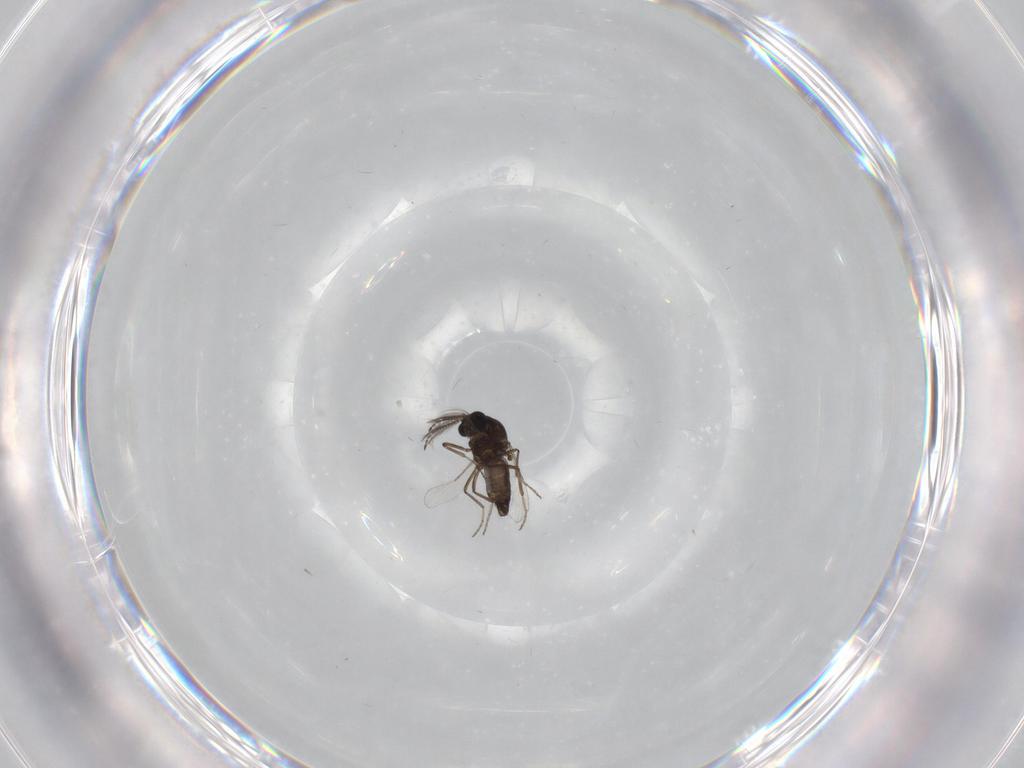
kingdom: Animalia
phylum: Arthropoda
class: Insecta
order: Diptera
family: Ceratopogonidae
